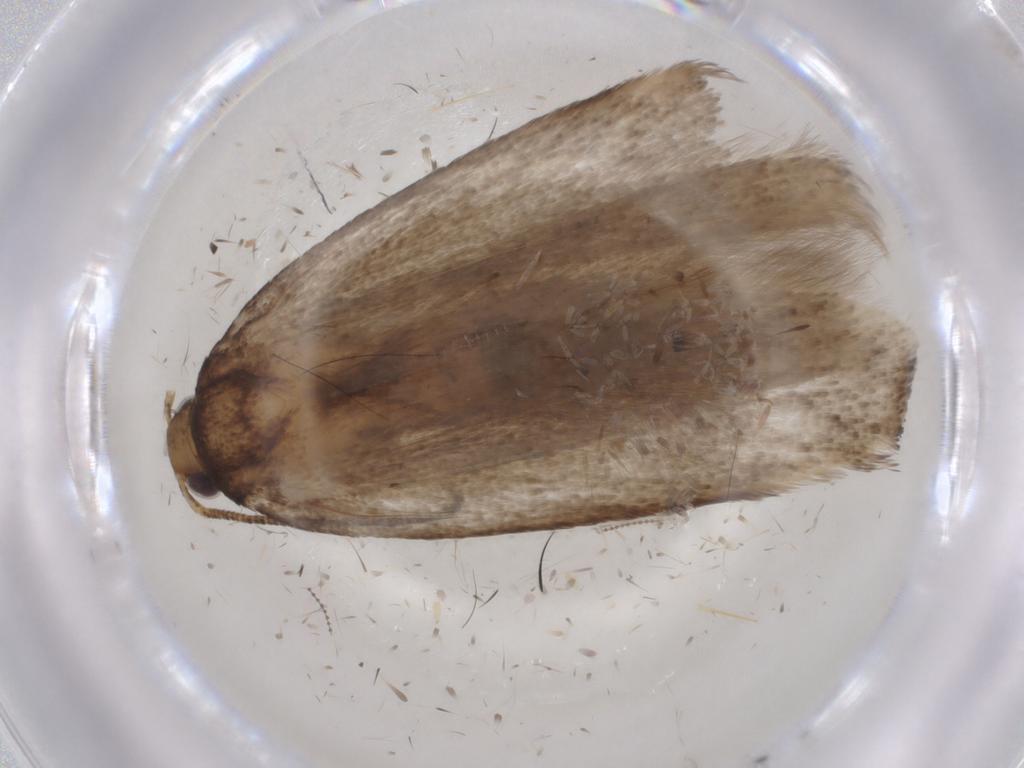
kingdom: Animalia
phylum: Arthropoda
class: Insecta
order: Lepidoptera
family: Gelechiidae
